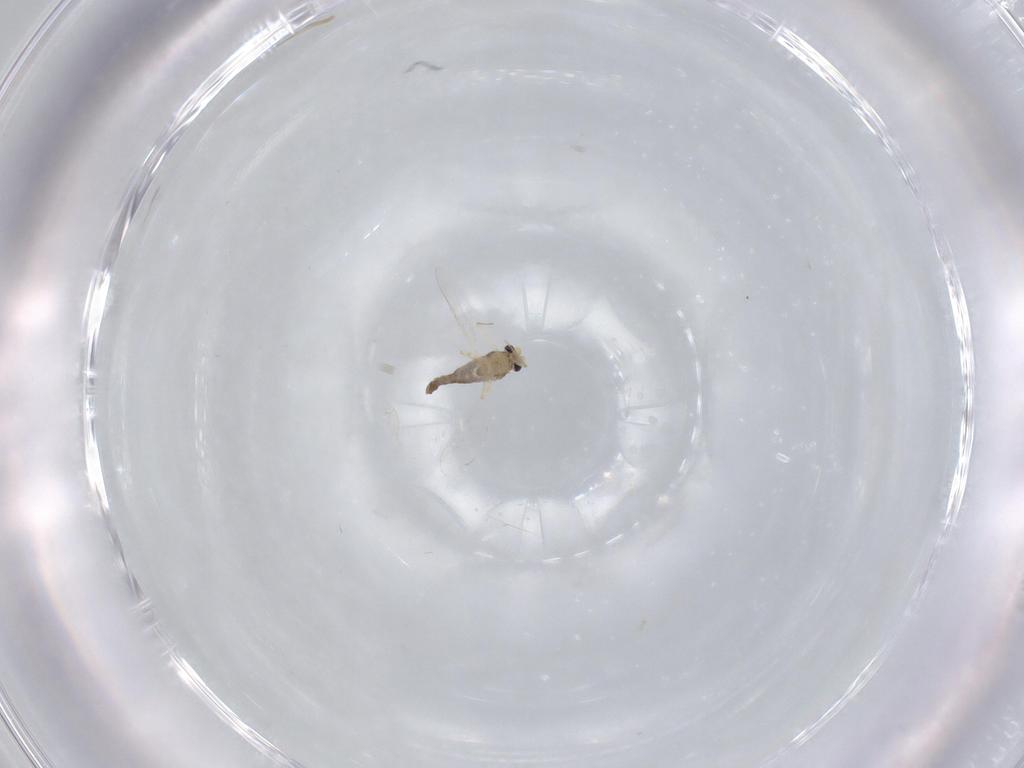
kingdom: Animalia
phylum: Arthropoda
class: Insecta
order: Diptera
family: Chironomidae
